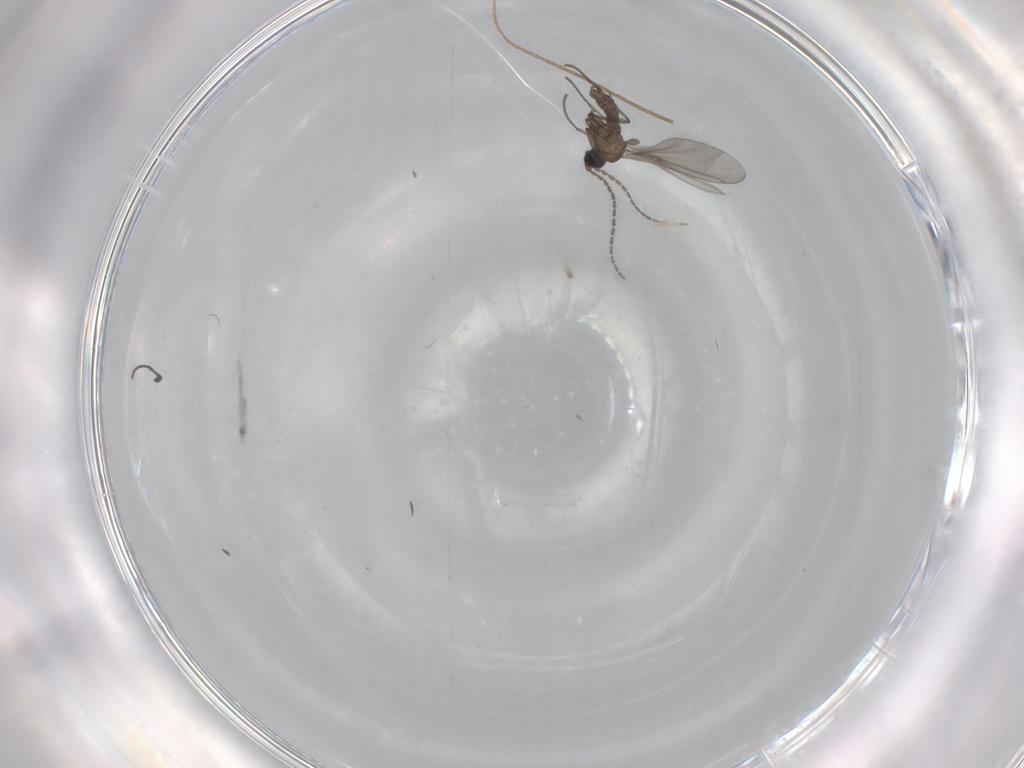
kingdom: Animalia
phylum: Arthropoda
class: Insecta
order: Diptera
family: Sciaridae
